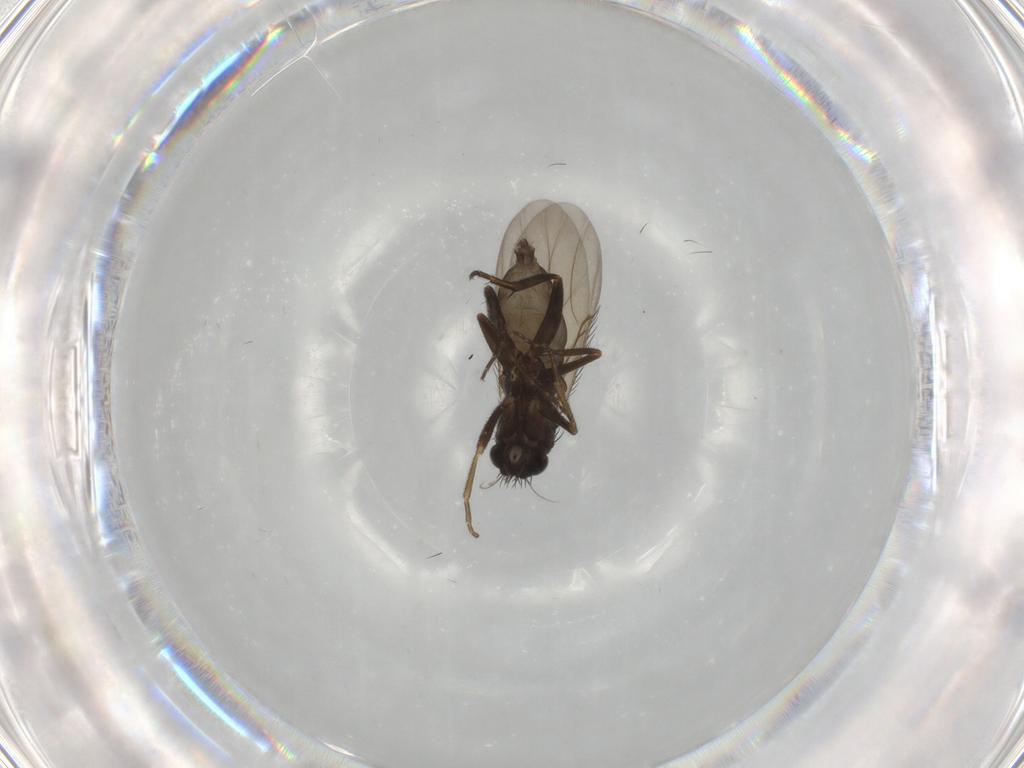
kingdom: Animalia
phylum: Arthropoda
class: Insecta
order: Diptera
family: Phoridae
